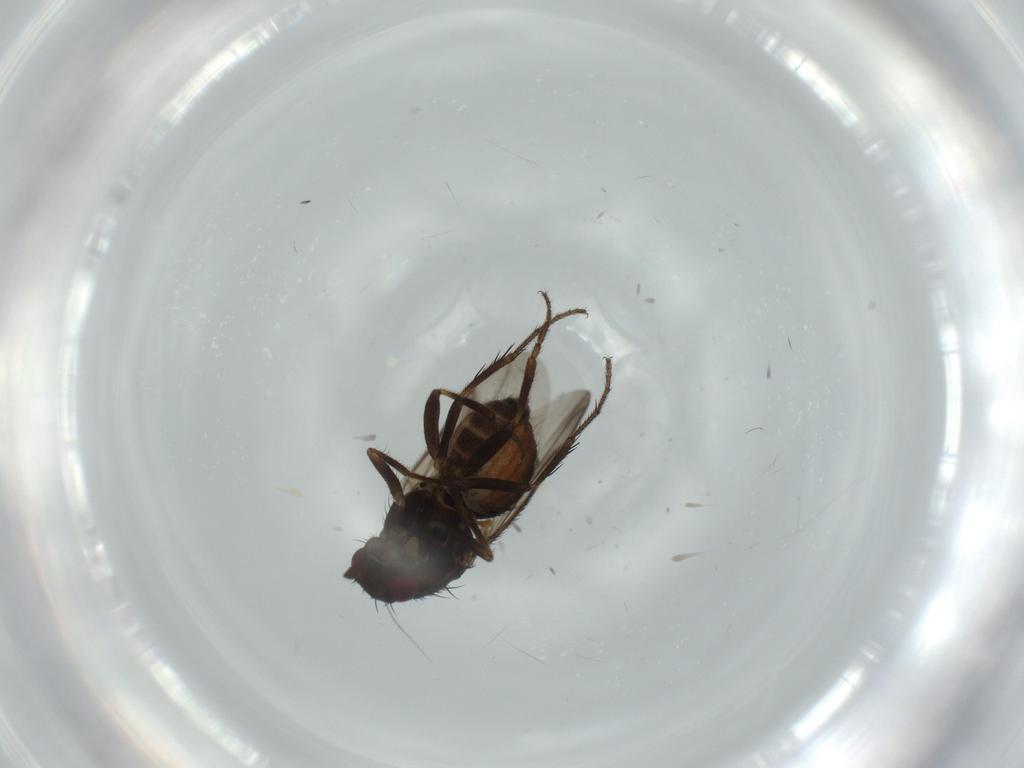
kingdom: Animalia
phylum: Arthropoda
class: Insecta
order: Diptera
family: Sphaeroceridae
